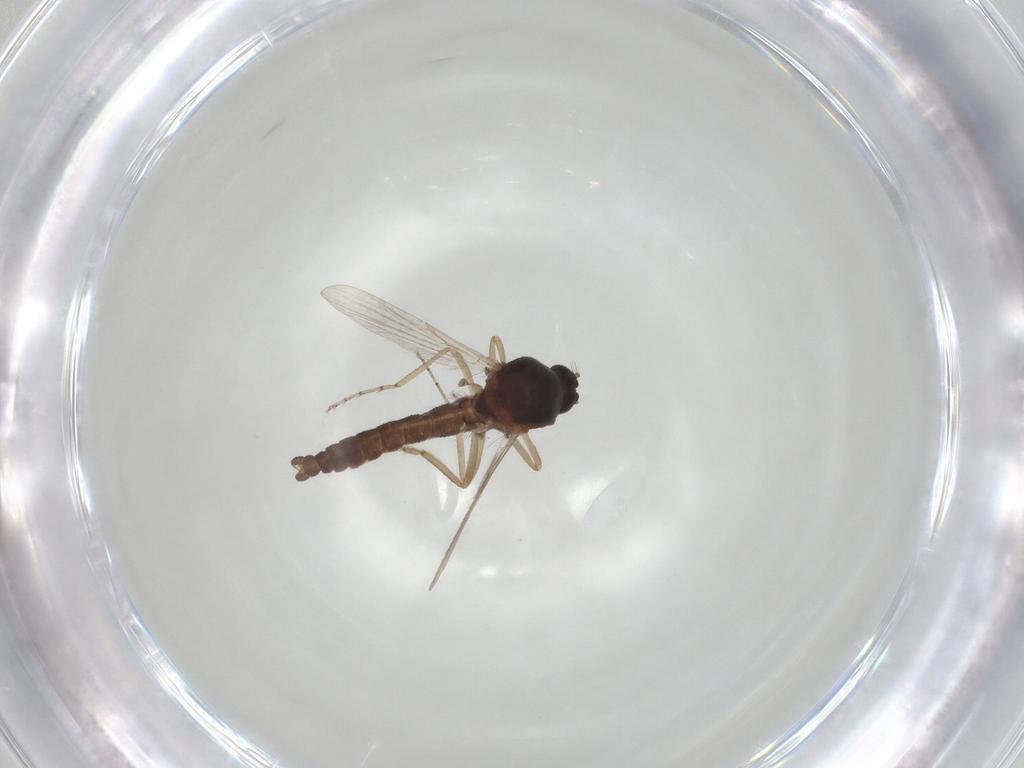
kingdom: Animalia
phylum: Arthropoda
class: Insecta
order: Diptera
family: Ceratopogonidae
